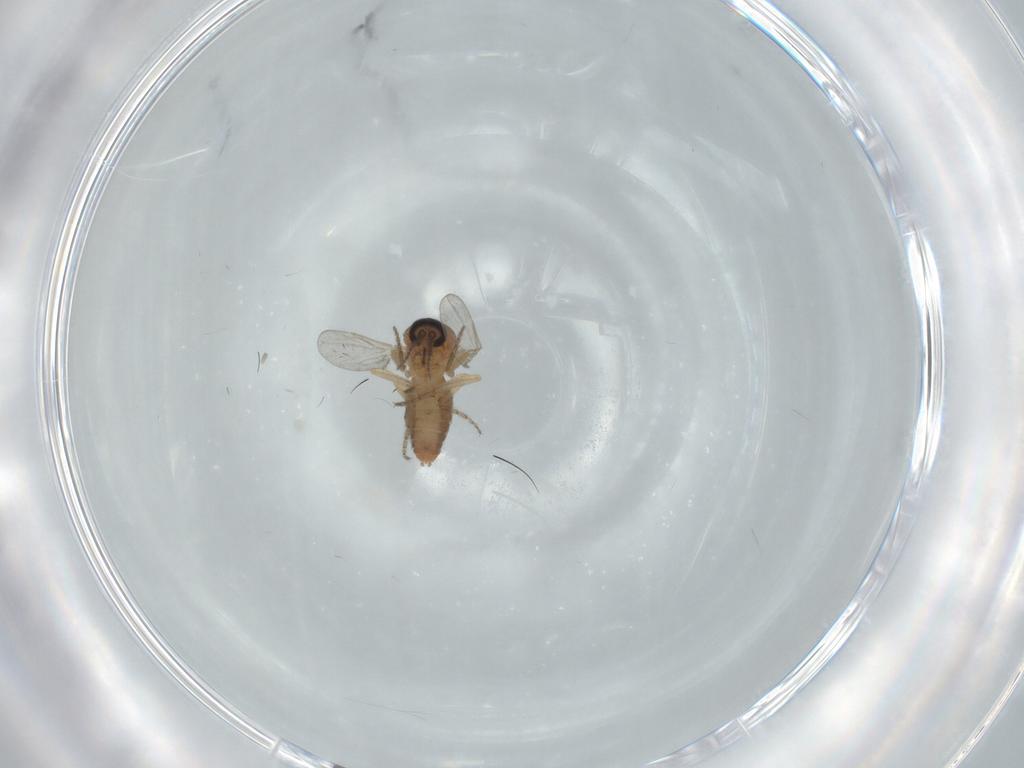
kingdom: Animalia
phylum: Arthropoda
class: Insecta
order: Diptera
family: Ceratopogonidae
